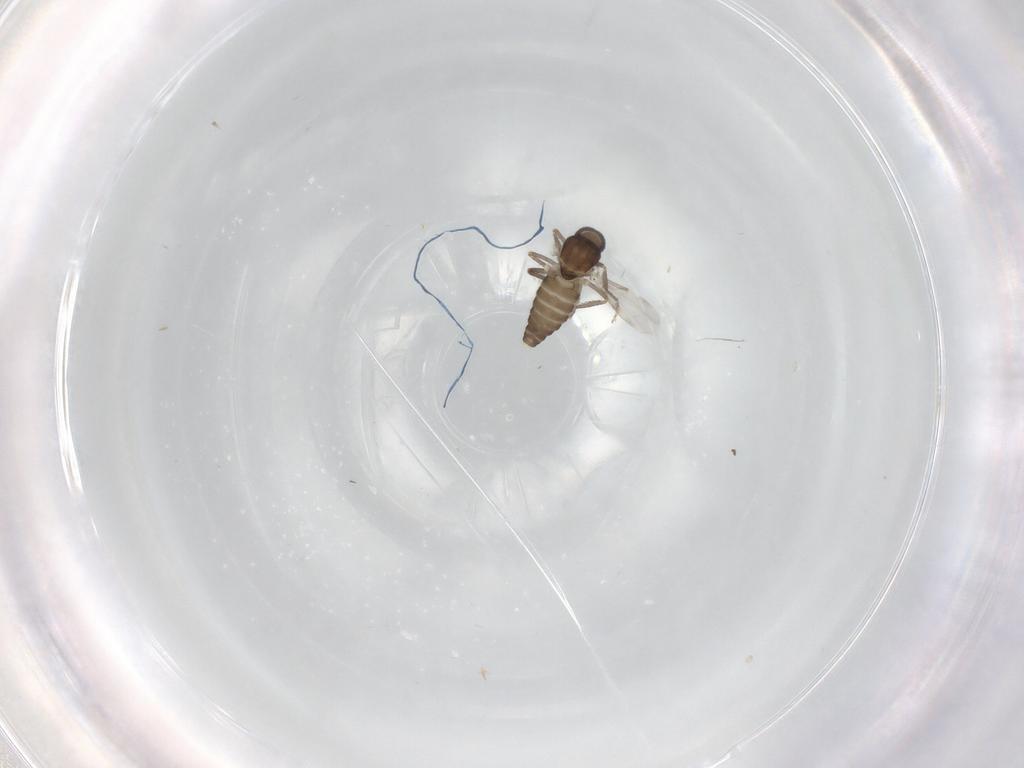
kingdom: Animalia
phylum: Arthropoda
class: Insecta
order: Diptera
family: Ceratopogonidae
